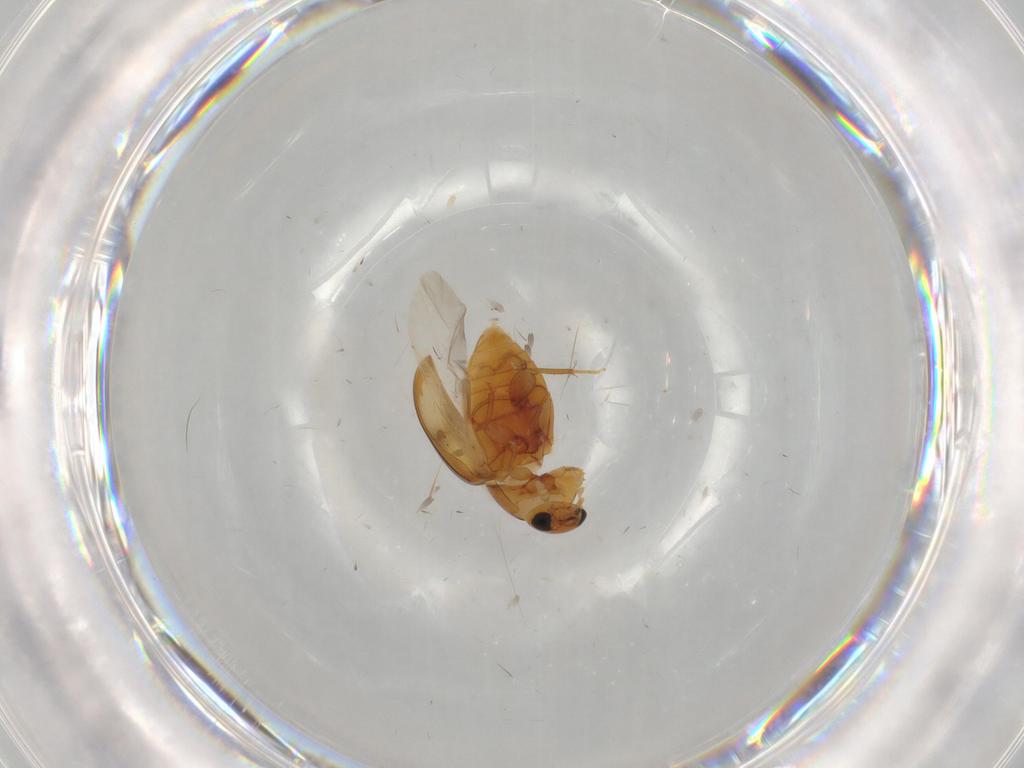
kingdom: Animalia
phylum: Arthropoda
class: Insecta
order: Coleoptera
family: Phalacridae
